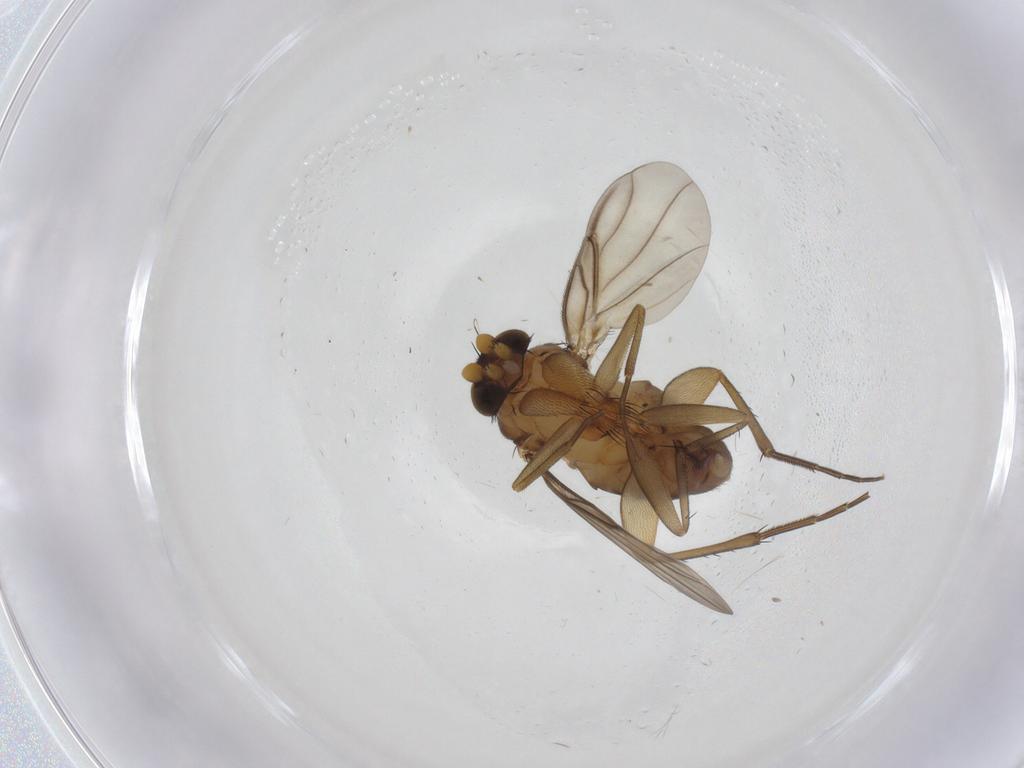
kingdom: Animalia
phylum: Arthropoda
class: Insecta
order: Diptera
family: Phoridae
